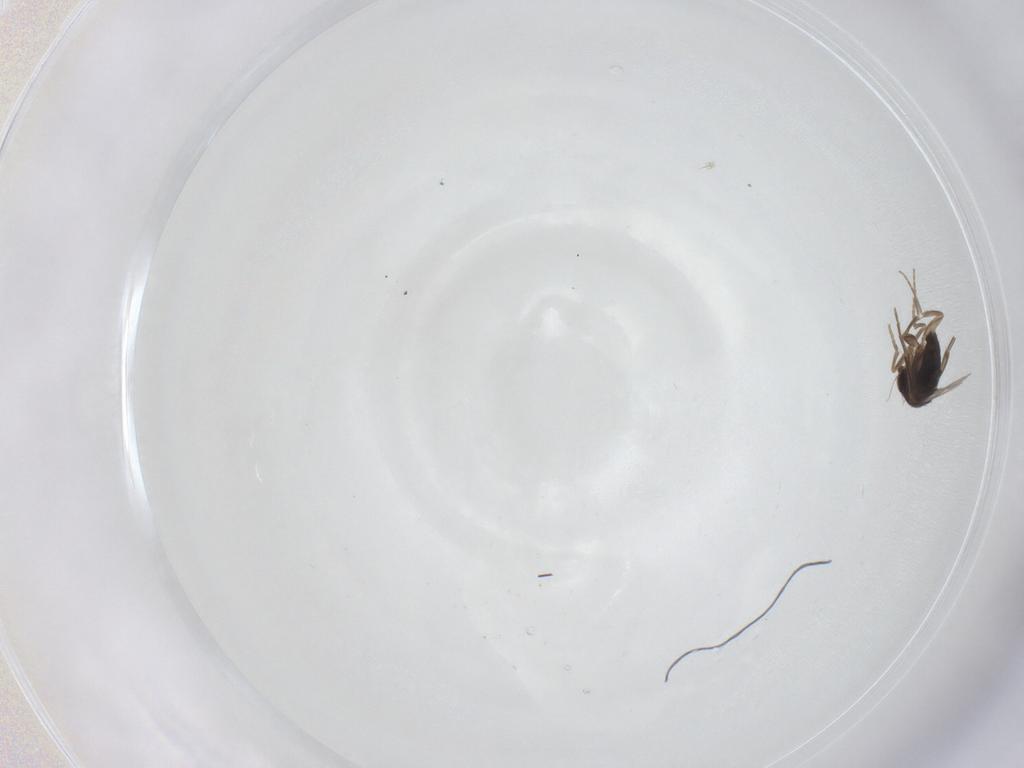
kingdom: Animalia
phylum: Arthropoda
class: Insecta
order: Diptera
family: Phoridae
